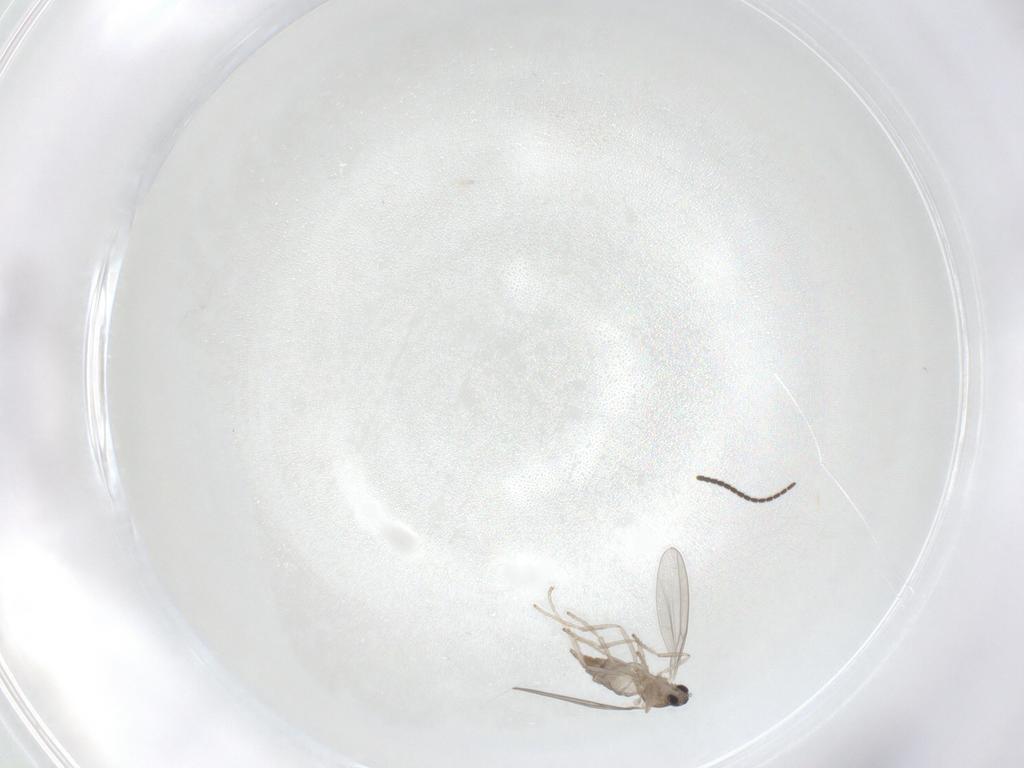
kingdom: Animalia
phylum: Arthropoda
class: Insecta
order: Diptera
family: Cecidomyiidae
